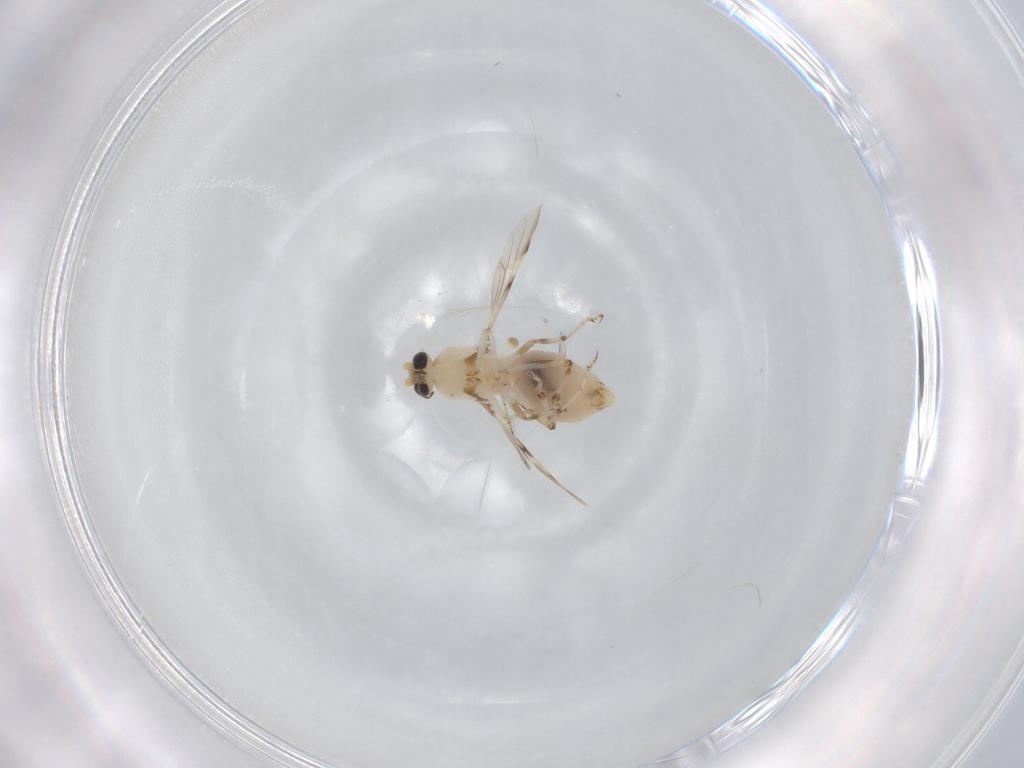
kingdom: Animalia
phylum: Arthropoda
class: Insecta
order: Diptera
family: Ceratopogonidae
